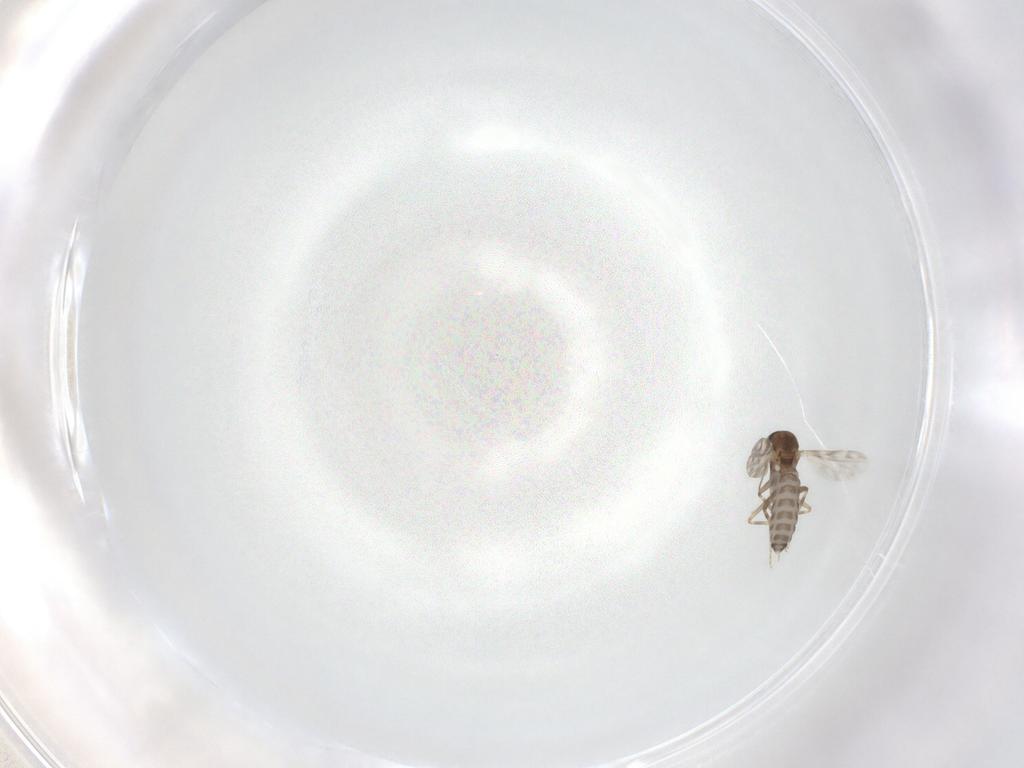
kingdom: Animalia
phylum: Arthropoda
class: Insecta
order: Diptera
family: Ceratopogonidae
